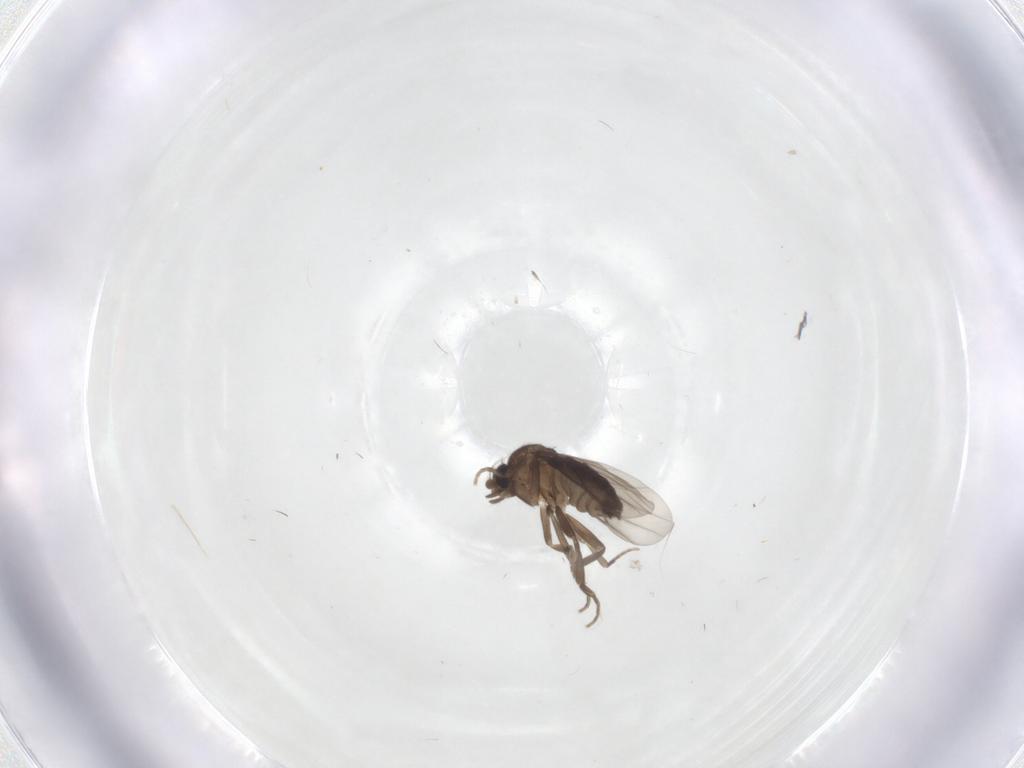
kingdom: Animalia
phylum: Arthropoda
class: Insecta
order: Diptera
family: Phoridae
